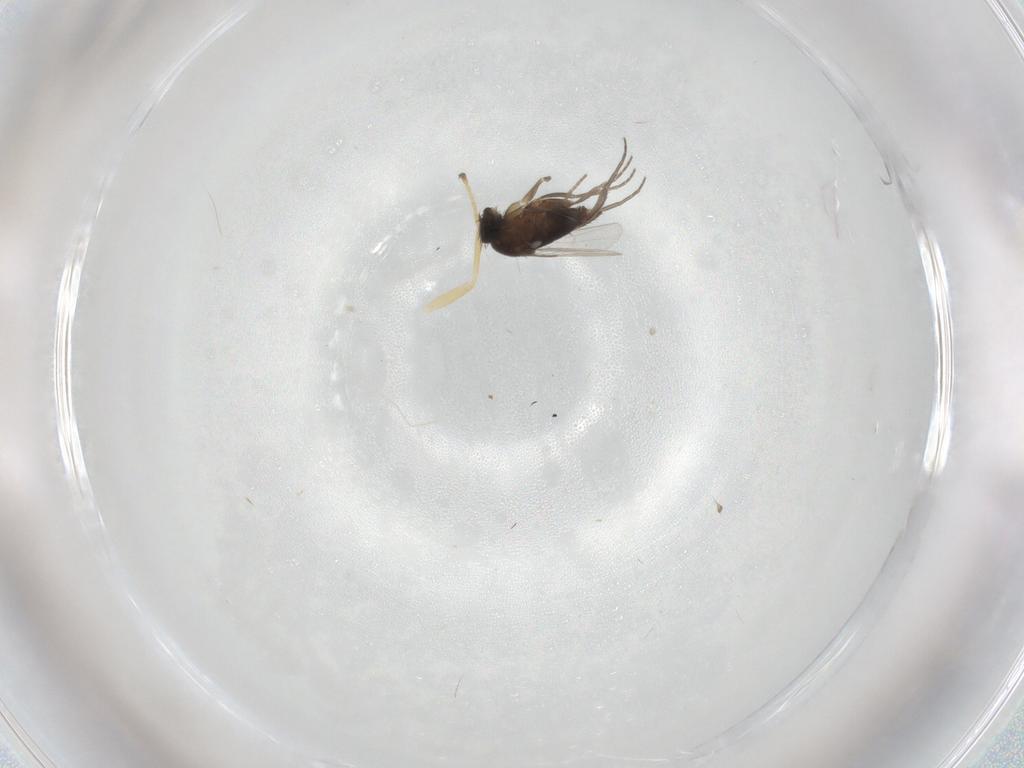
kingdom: Animalia
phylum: Arthropoda
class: Insecta
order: Diptera
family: Phoridae
